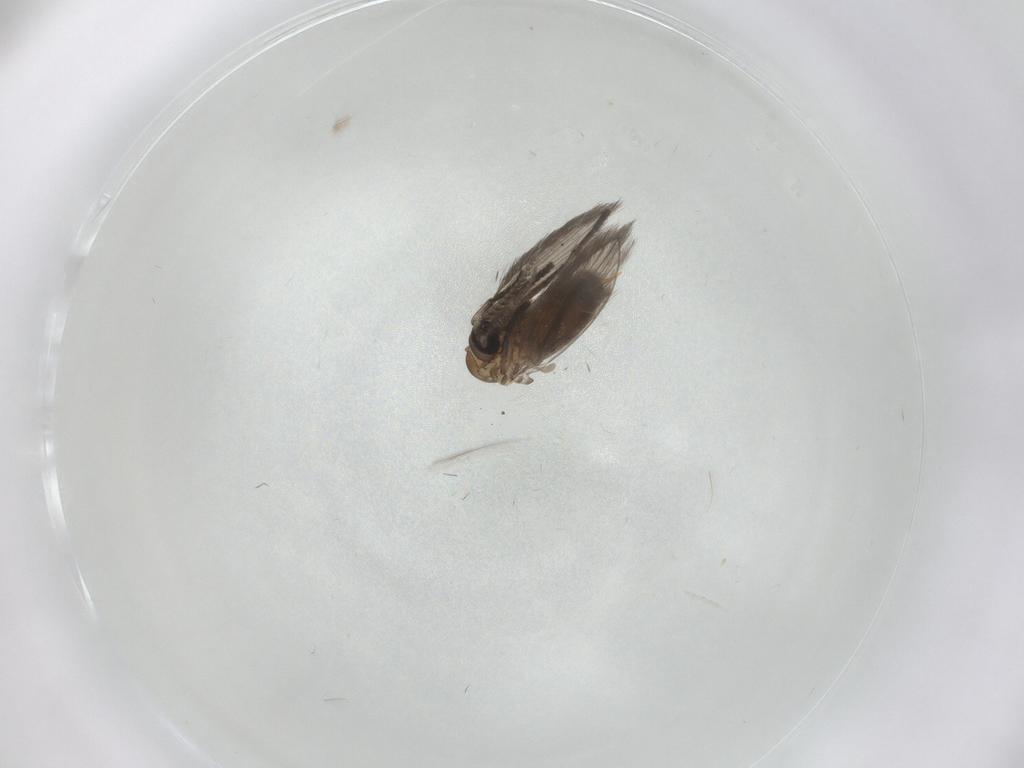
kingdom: Animalia
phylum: Arthropoda
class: Insecta
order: Diptera
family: Psychodidae
